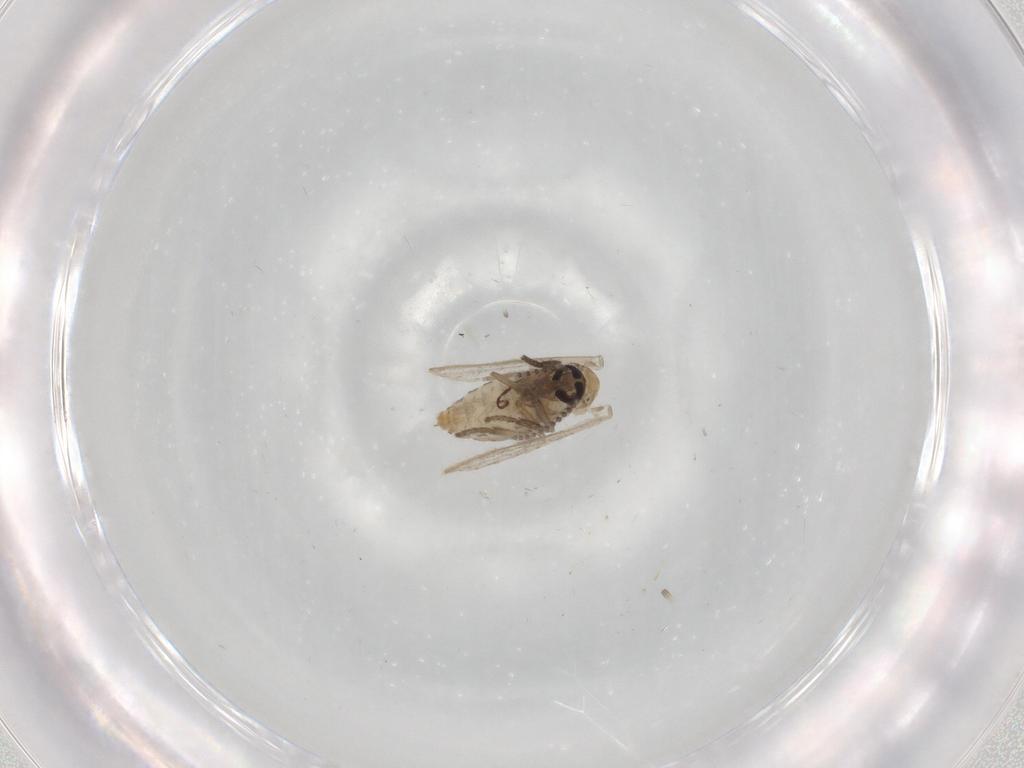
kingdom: Animalia
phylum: Arthropoda
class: Insecta
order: Diptera
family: Psychodidae
